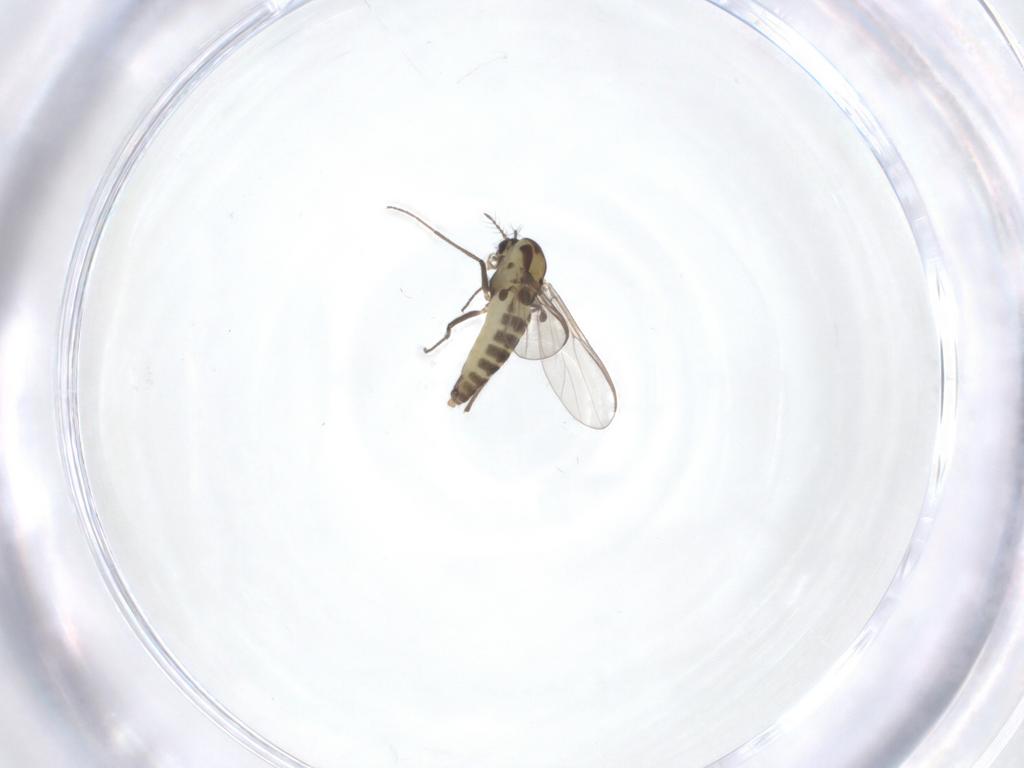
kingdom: Animalia
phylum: Arthropoda
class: Insecta
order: Diptera
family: Chironomidae
